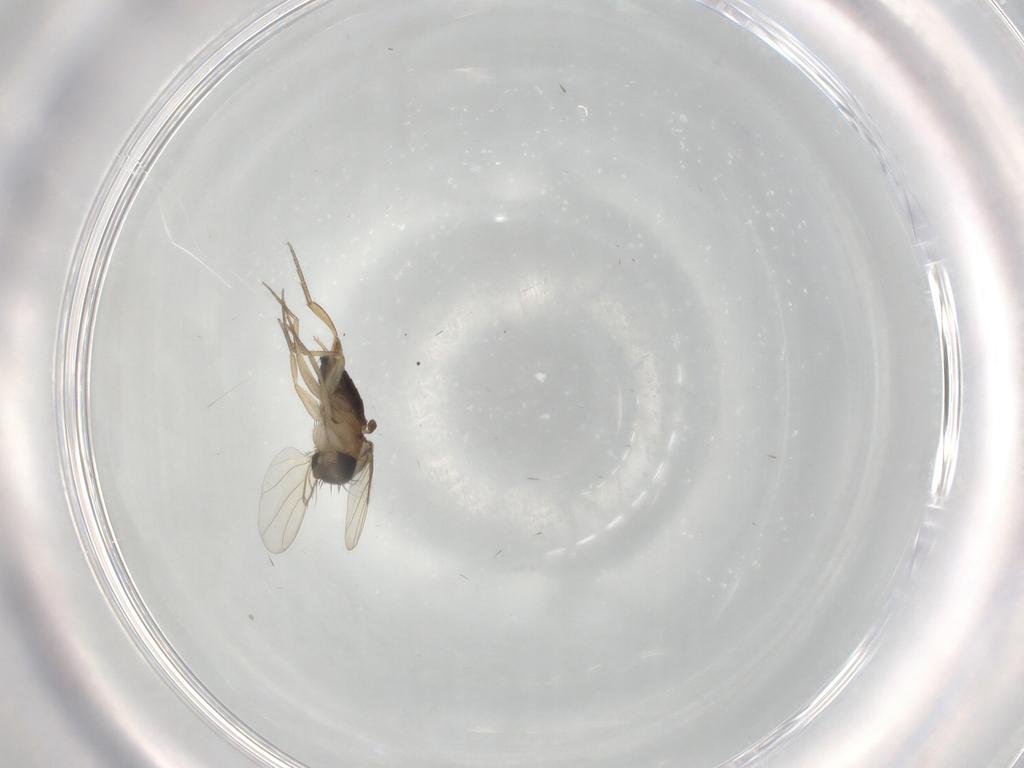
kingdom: Animalia
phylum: Arthropoda
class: Insecta
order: Diptera
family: Phoridae
